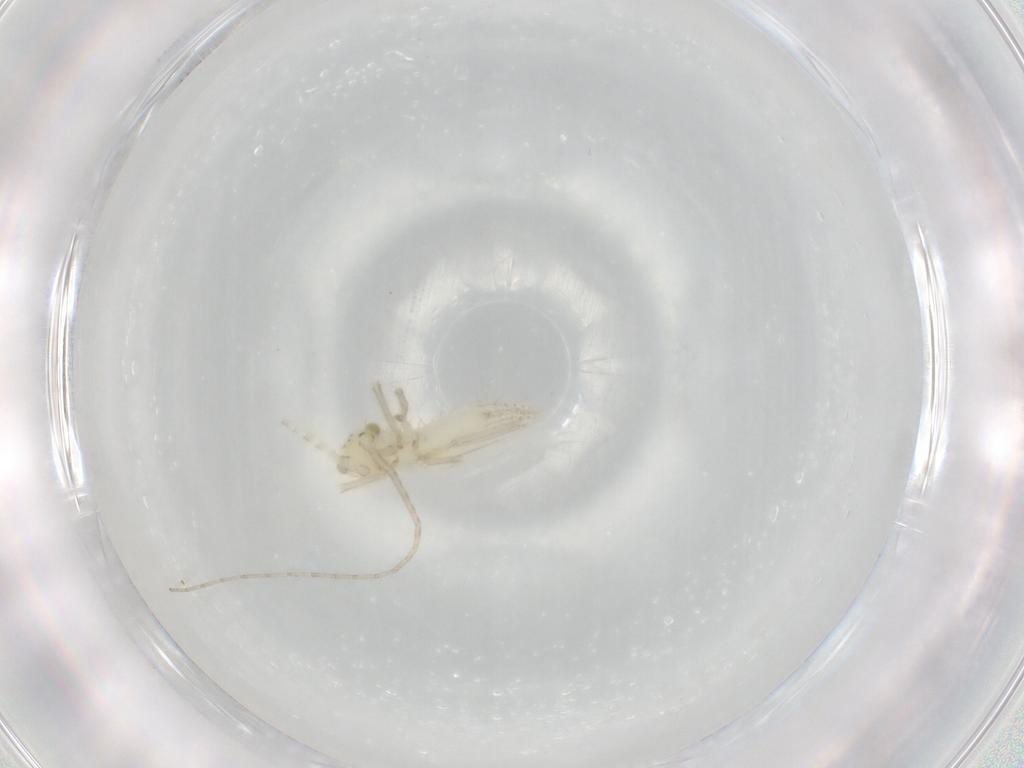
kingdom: Animalia
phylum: Arthropoda
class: Insecta
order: Orthoptera
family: Trigonidiidae
